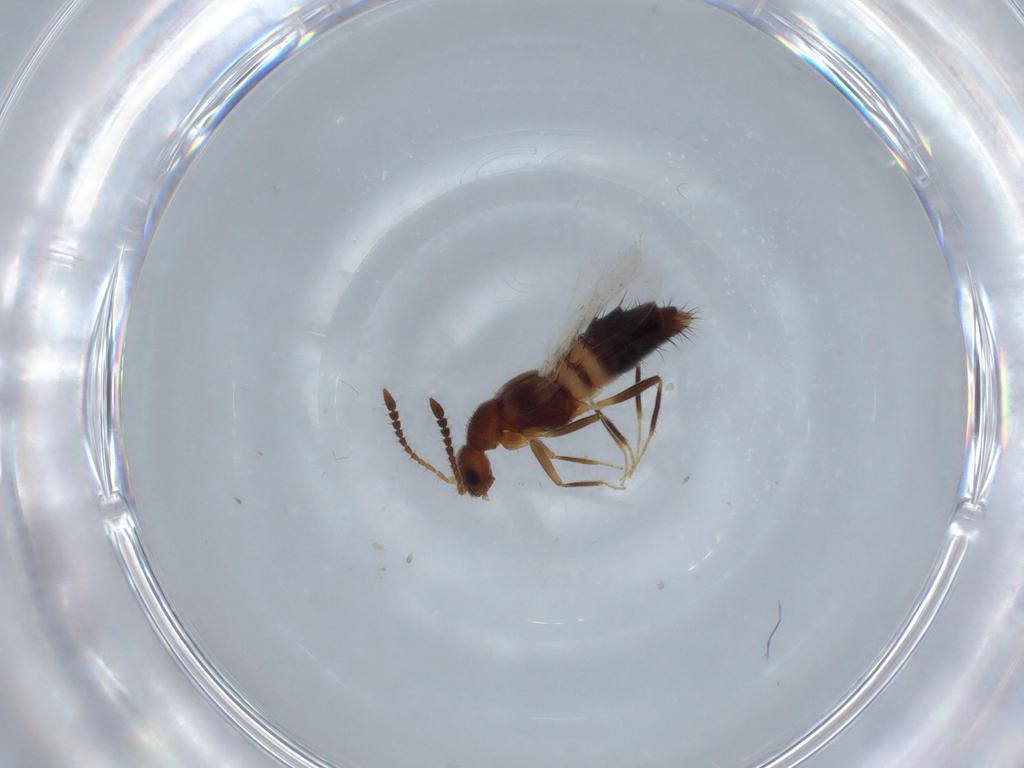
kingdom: Animalia
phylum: Arthropoda
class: Insecta
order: Coleoptera
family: Staphylinidae
